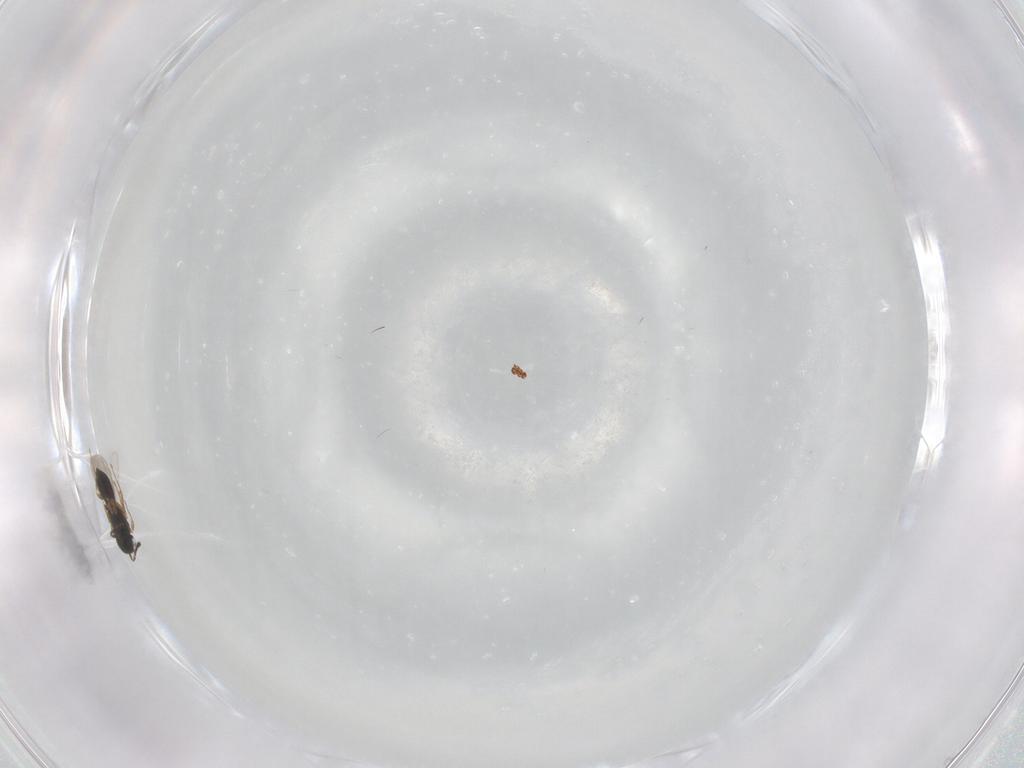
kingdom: Animalia
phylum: Arthropoda
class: Insecta
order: Hymenoptera
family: Scelionidae
